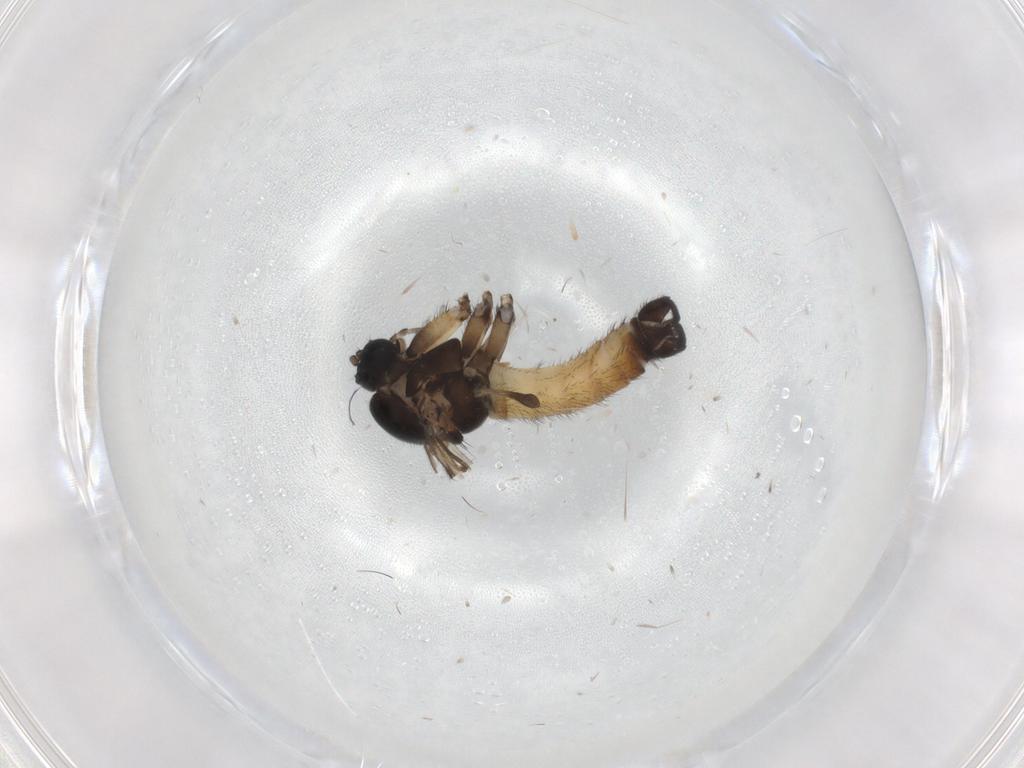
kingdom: Animalia
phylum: Arthropoda
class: Insecta
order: Diptera
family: Sciaridae
